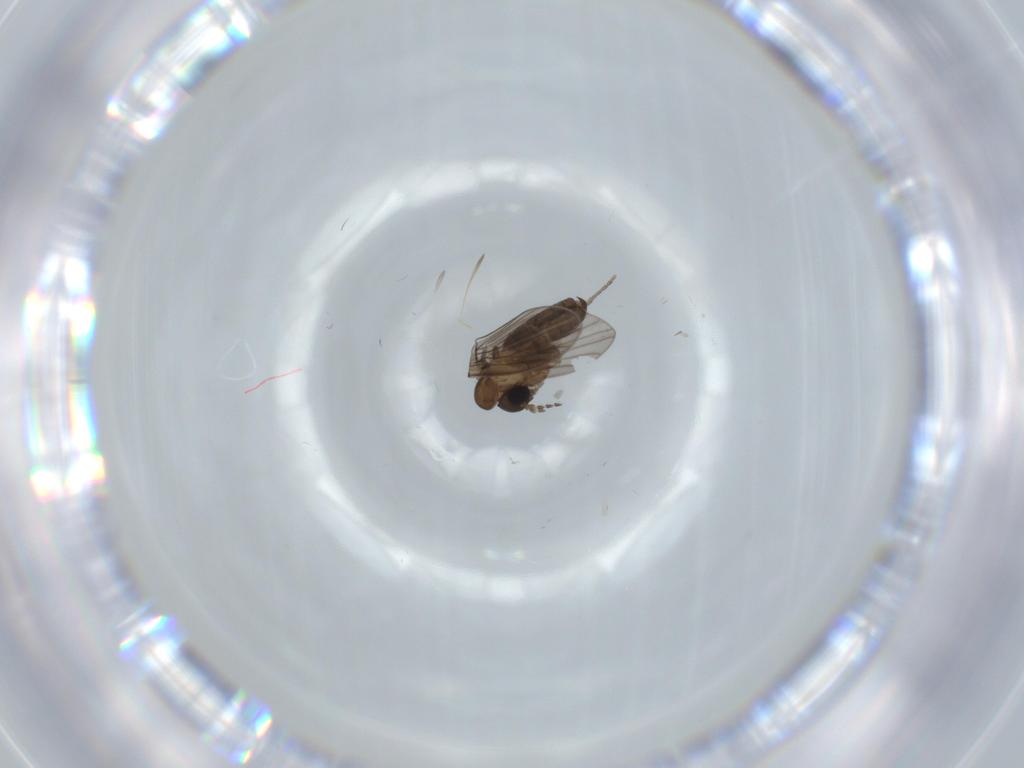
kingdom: Animalia
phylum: Arthropoda
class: Insecta
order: Diptera
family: Psychodidae
